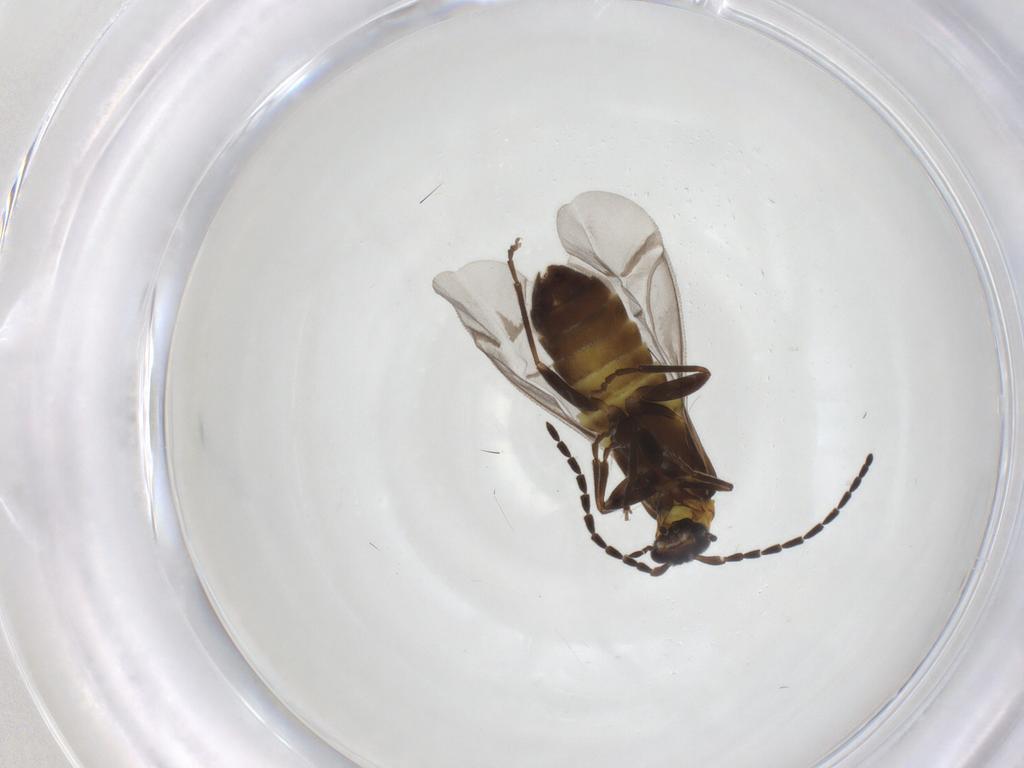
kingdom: Animalia
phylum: Arthropoda
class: Insecta
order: Coleoptera
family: Cantharidae
